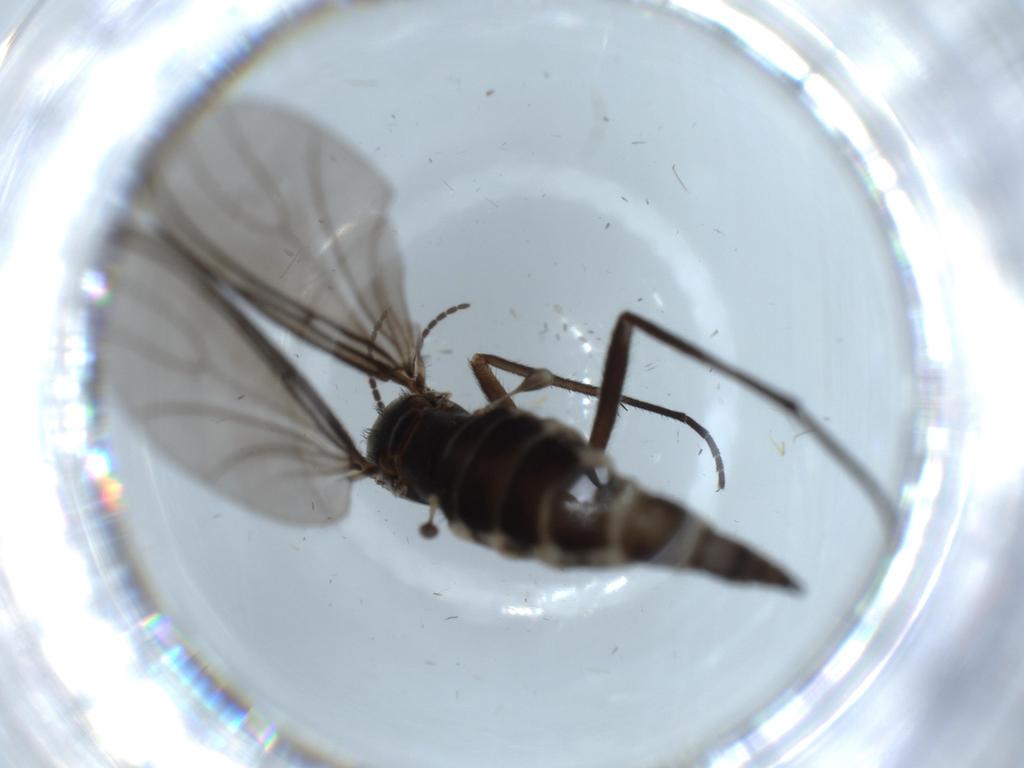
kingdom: Animalia
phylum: Arthropoda
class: Insecta
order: Diptera
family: Sciaridae
